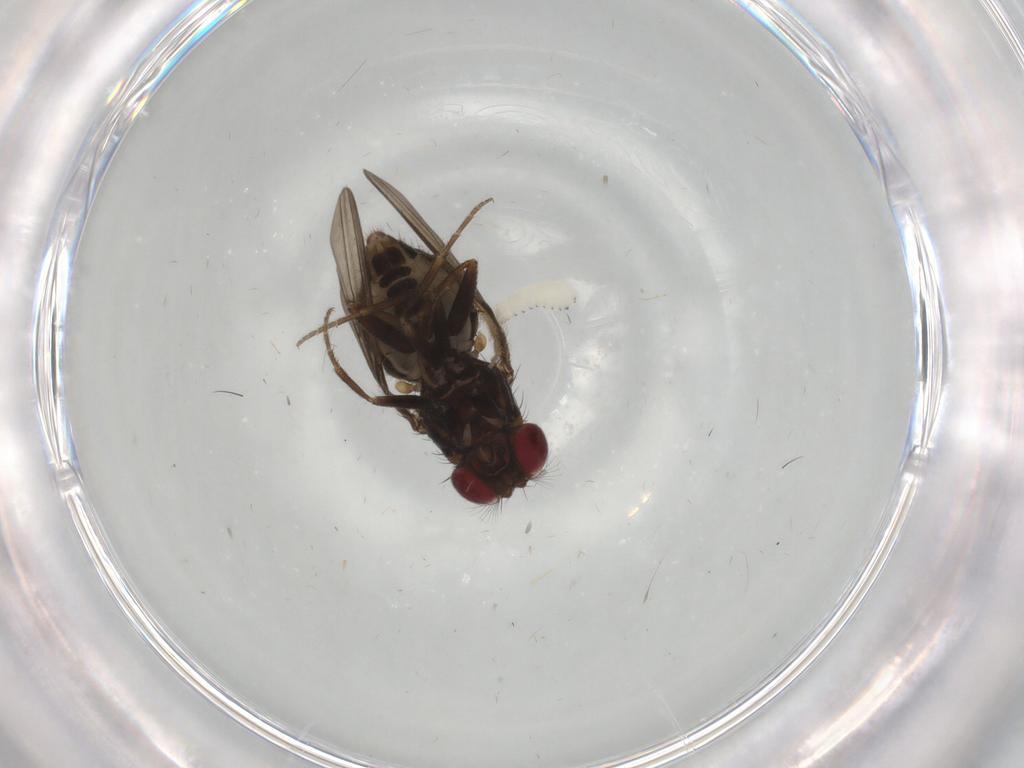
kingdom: Animalia
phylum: Arthropoda
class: Insecta
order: Diptera
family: Drosophilidae
